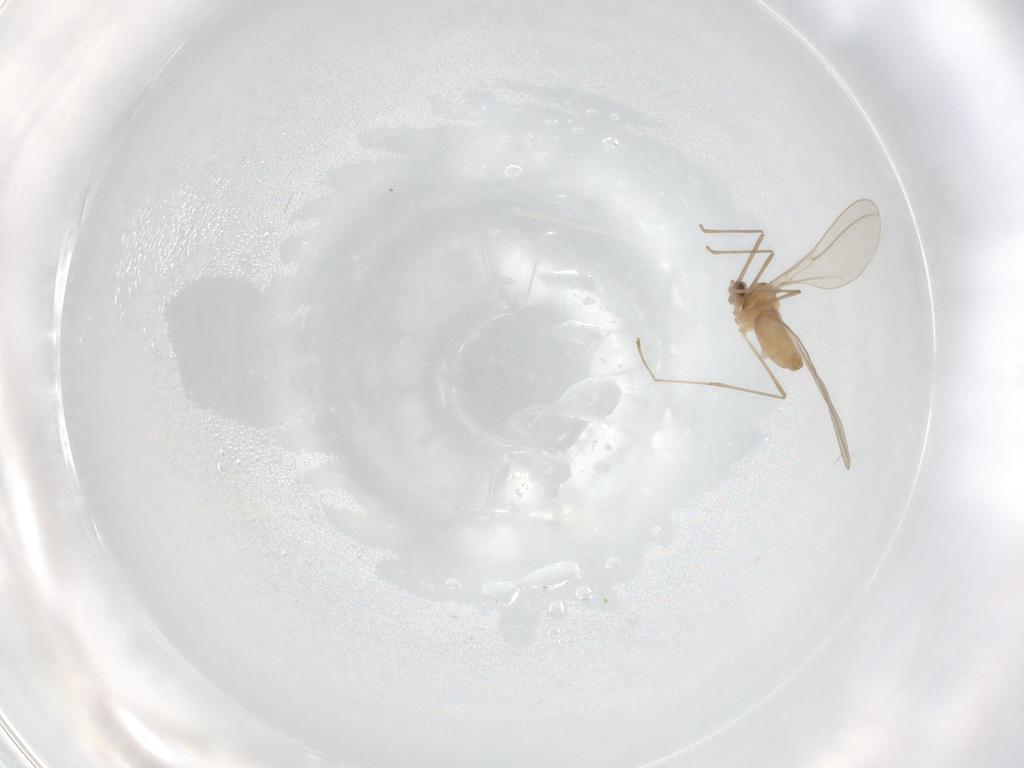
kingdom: Animalia
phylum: Arthropoda
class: Insecta
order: Diptera
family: Cecidomyiidae
